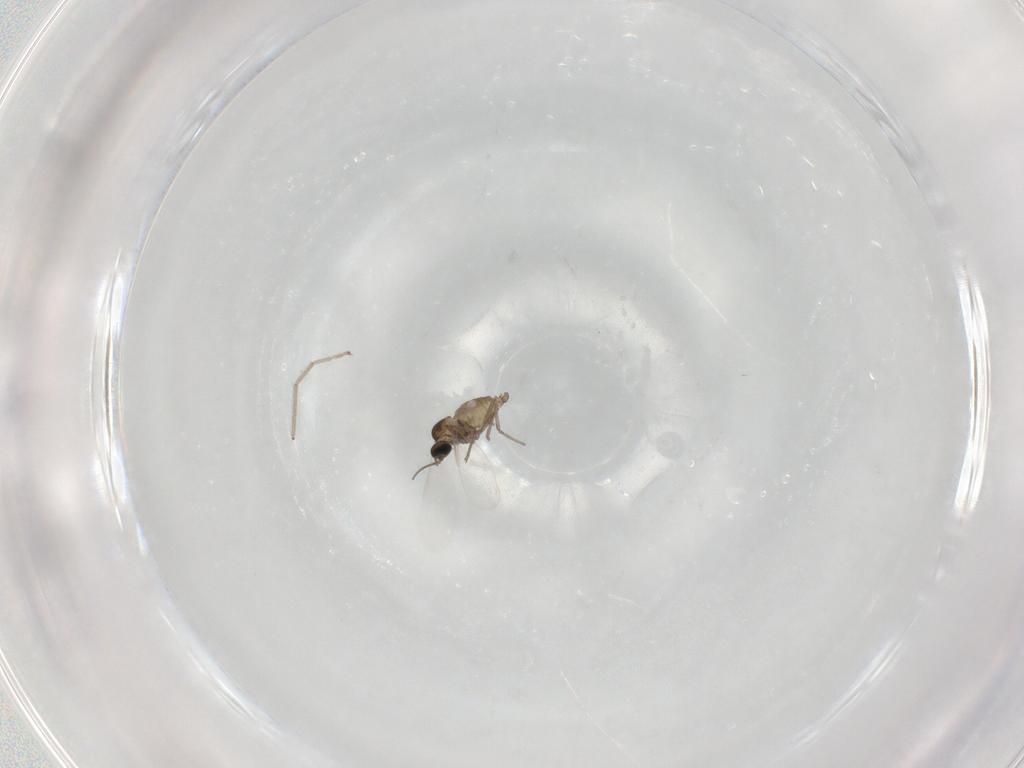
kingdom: Animalia
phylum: Arthropoda
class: Insecta
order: Diptera
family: Cecidomyiidae
